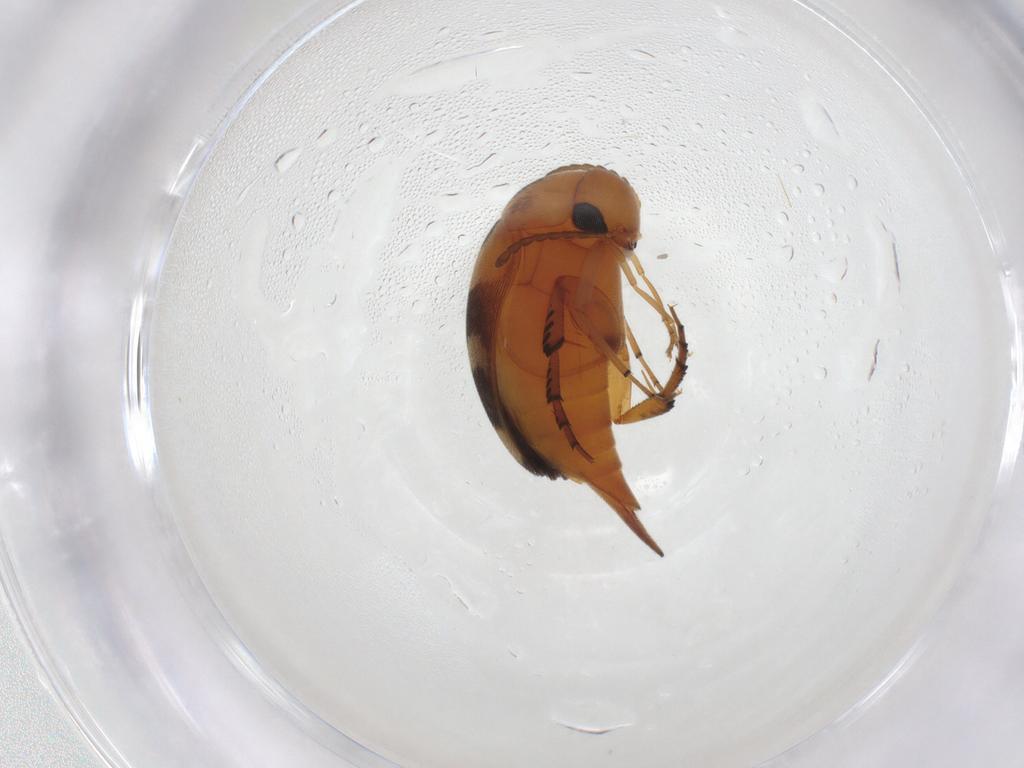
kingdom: Animalia
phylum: Arthropoda
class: Insecta
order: Coleoptera
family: Mordellidae
